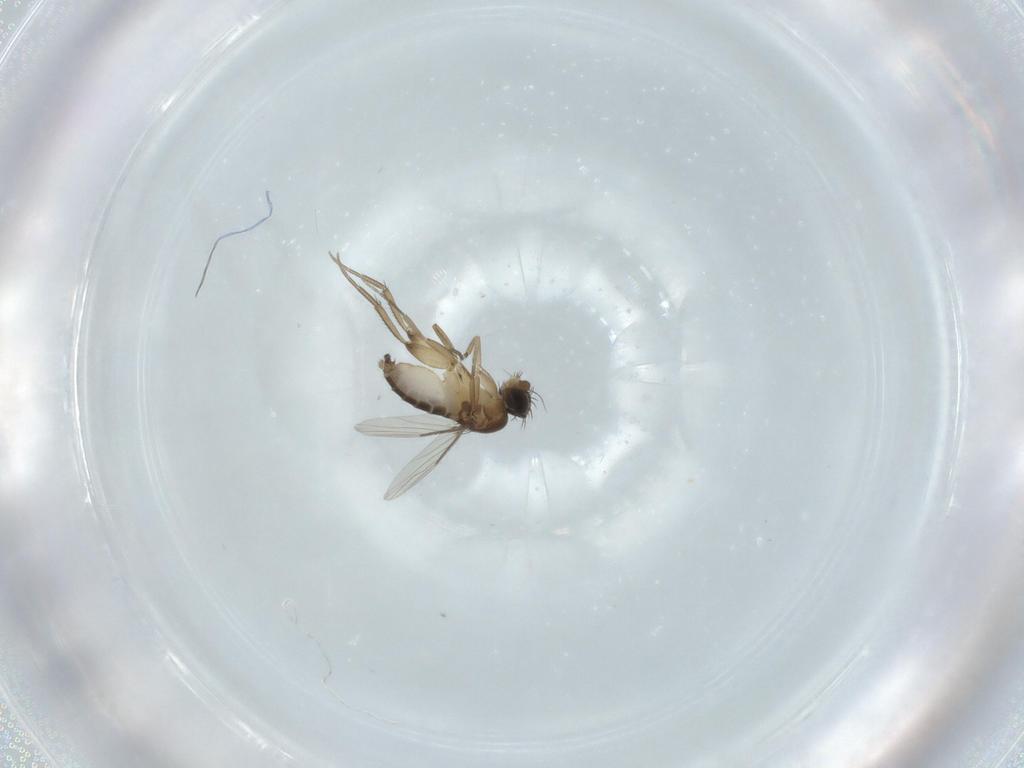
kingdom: Animalia
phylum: Arthropoda
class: Insecta
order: Diptera
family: Phoridae
